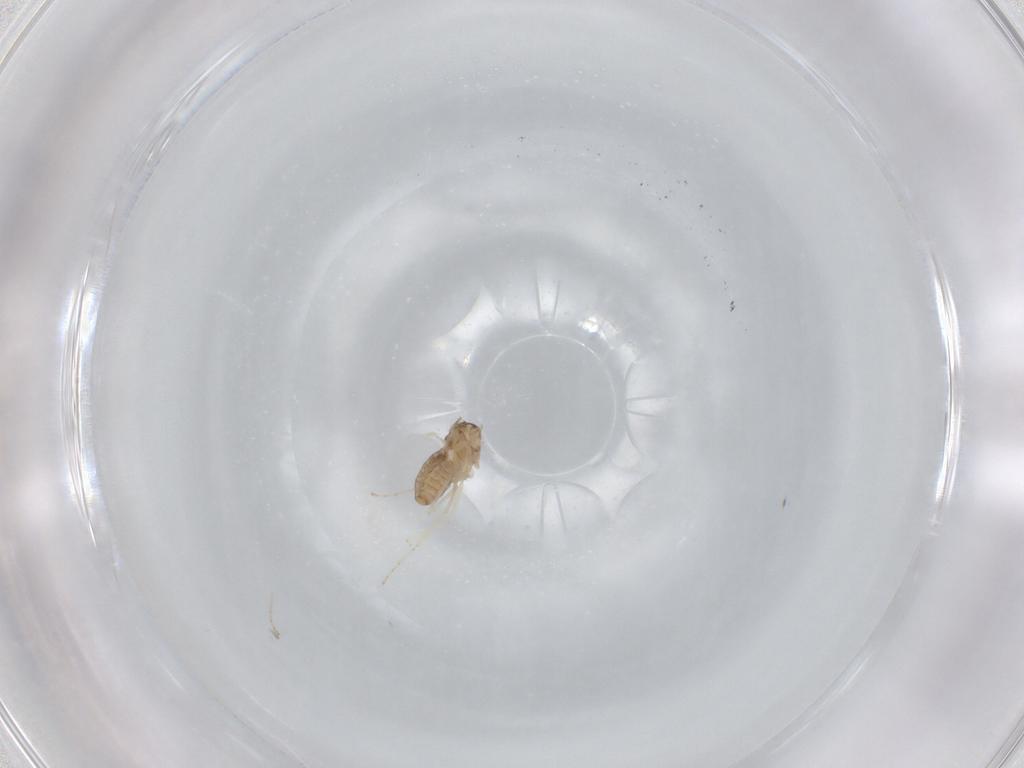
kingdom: Animalia
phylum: Arthropoda
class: Insecta
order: Diptera
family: Cecidomyiidae
